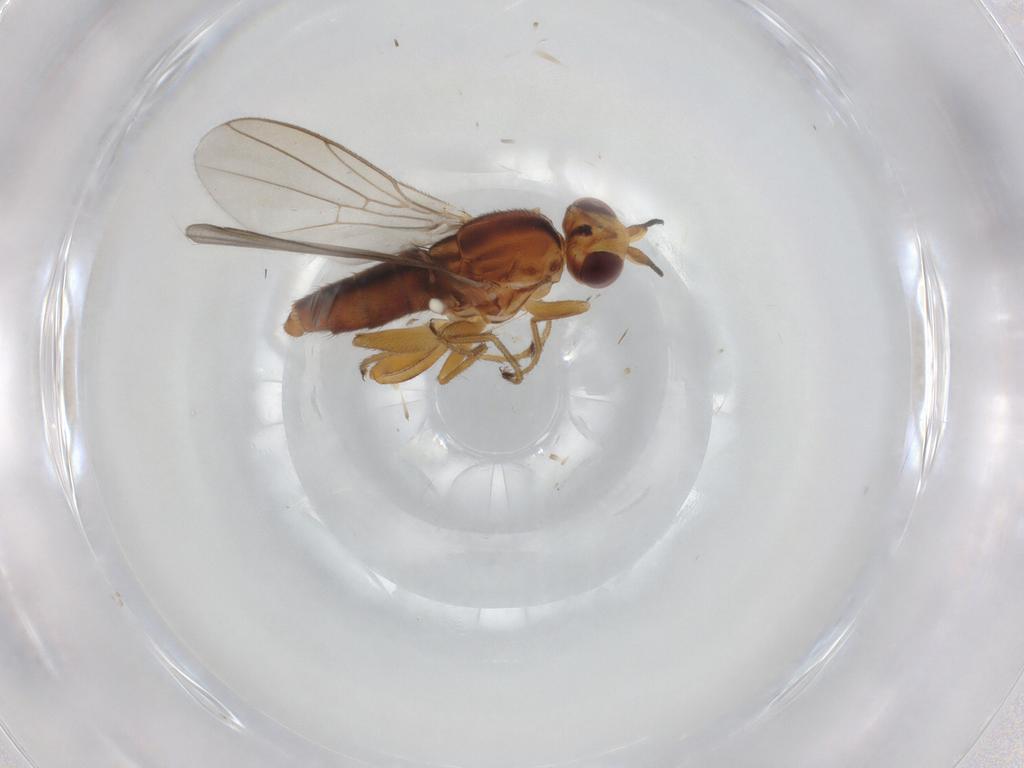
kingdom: Animalia
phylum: Arthropoda
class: Insecta
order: Diptera
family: Chloropidae
